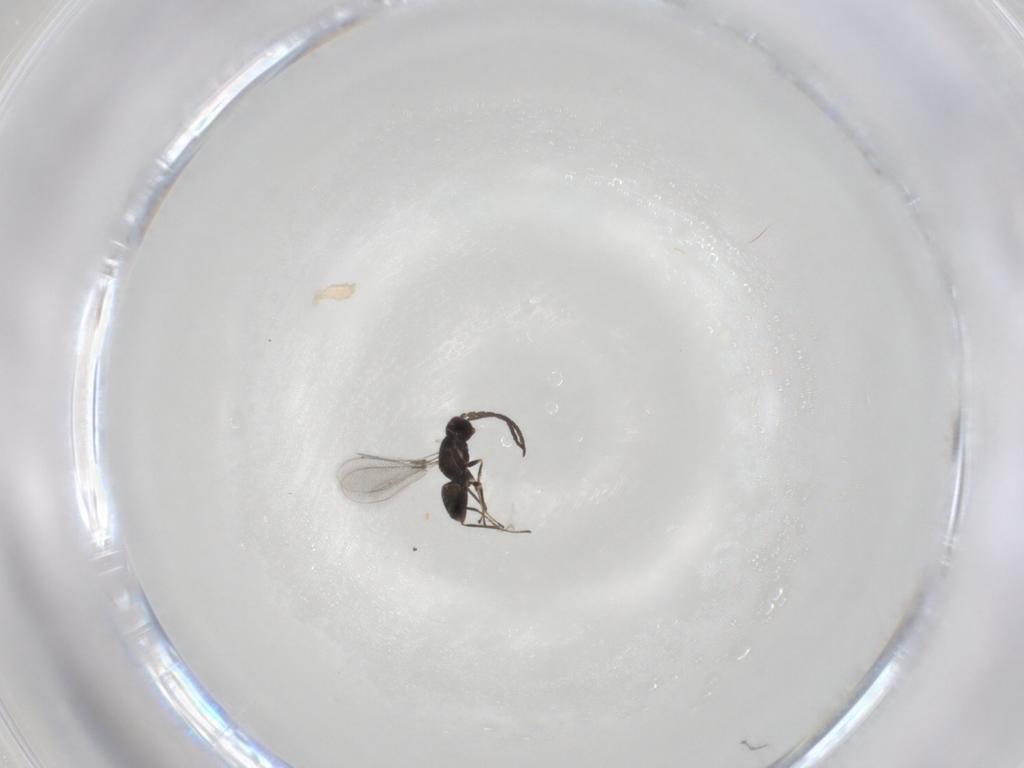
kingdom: Animalia
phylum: Arthropoda
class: Insecta
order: Hymenoptera
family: Mymaridae
